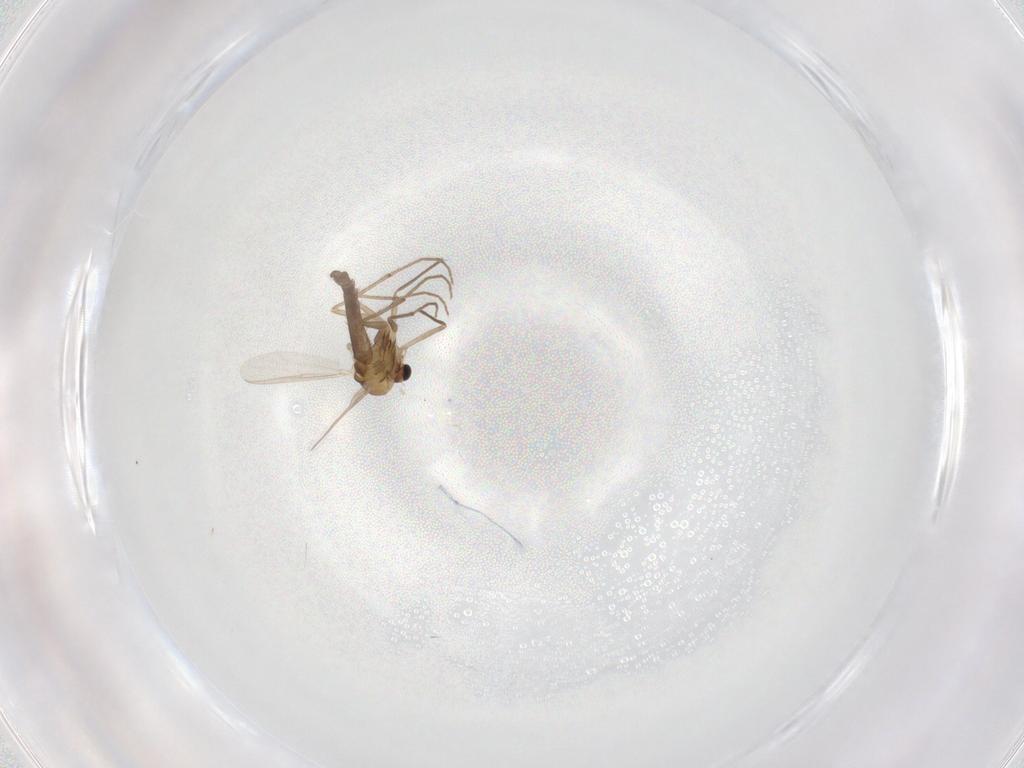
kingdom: Animalia
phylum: Arthropoda
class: Insecta
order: Diptera
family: Chironomidae
